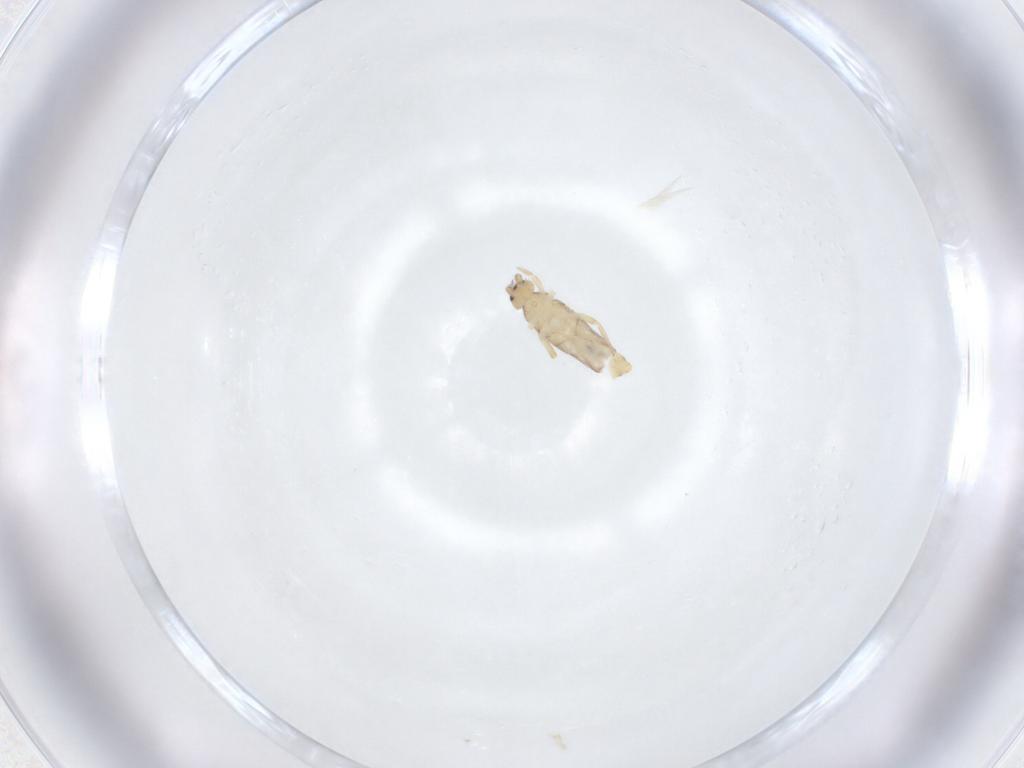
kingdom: Animalia
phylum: Arthropoda
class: Collembola
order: Entomobryomorpha
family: Entomobryidae
